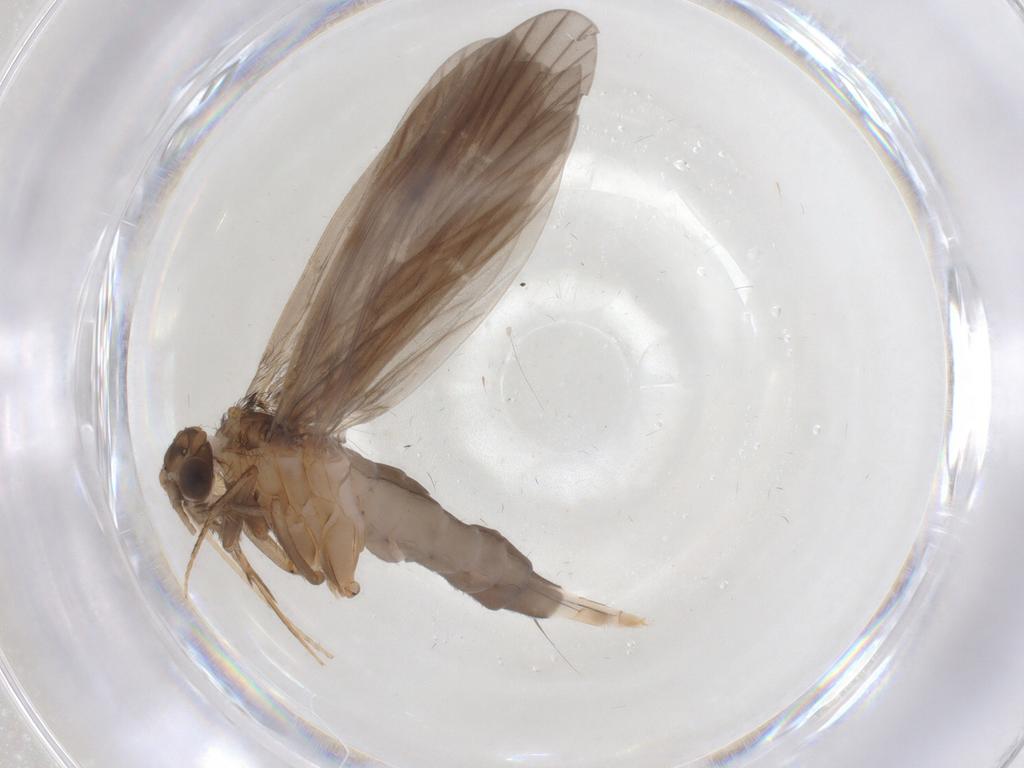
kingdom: Animalia
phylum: Arthropoda
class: Insecta
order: Trichoptera
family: Philopotamidae
